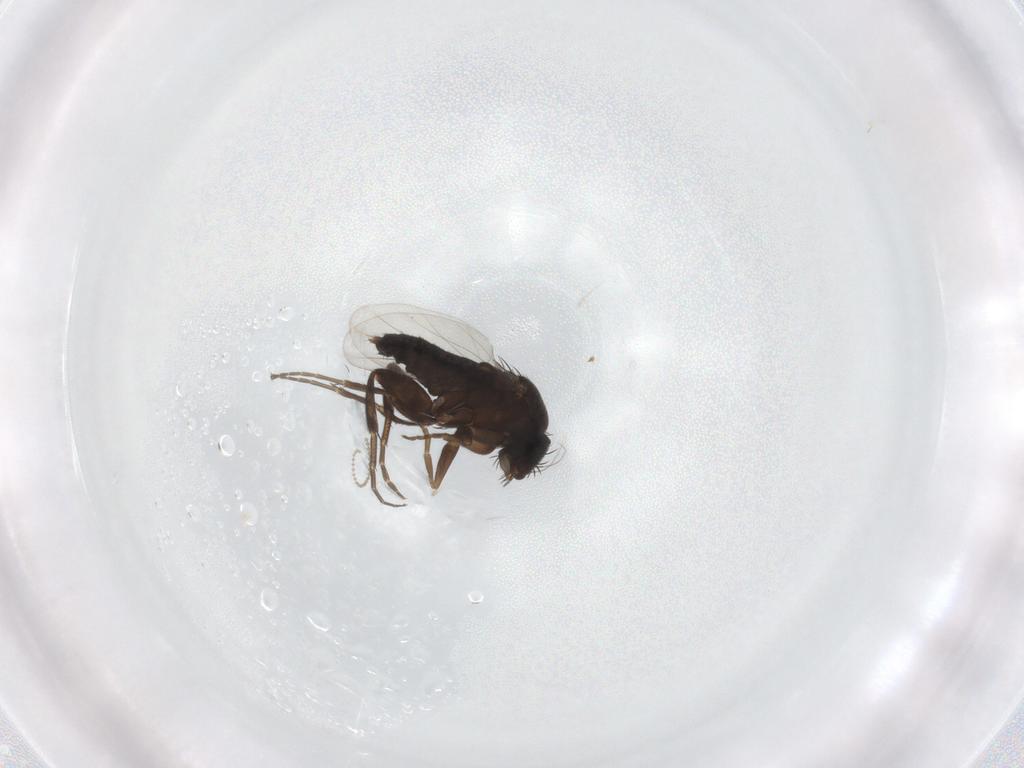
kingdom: Animalia
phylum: Arthropoda
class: Insecta
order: Diptera
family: Phoridae
